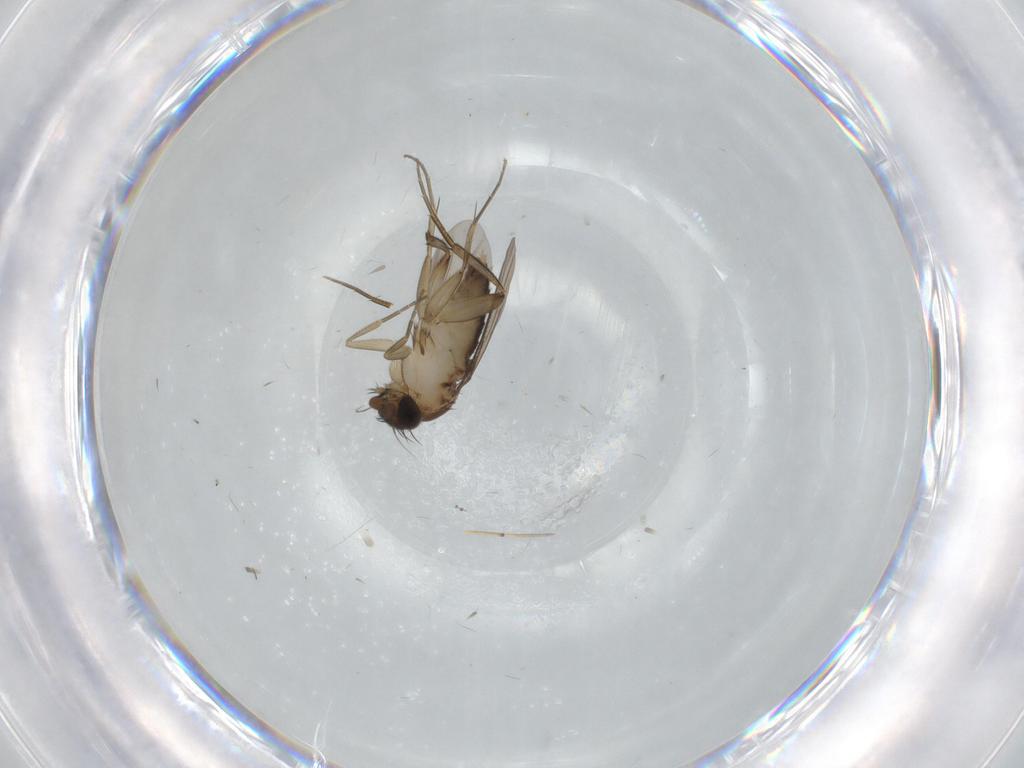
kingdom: Animalia
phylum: Arthropoda
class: Insecta
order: Diptera
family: Phoridae
